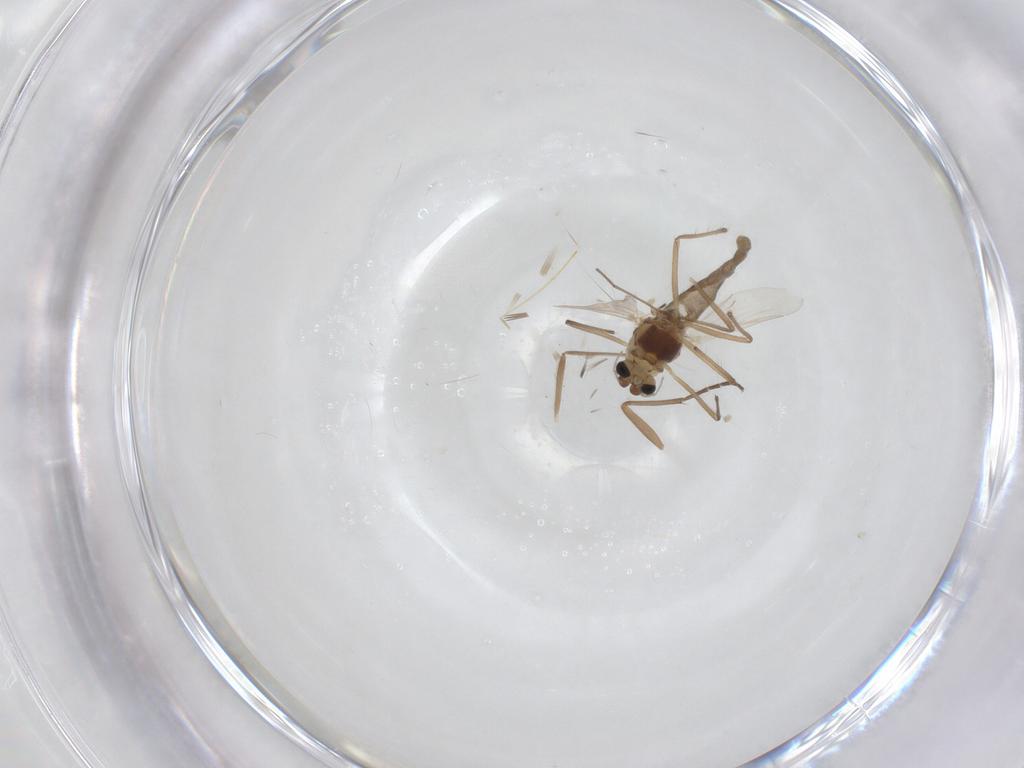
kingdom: Animalia
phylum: Arthropoda
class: Insecta
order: Diptera
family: Chironomidae
